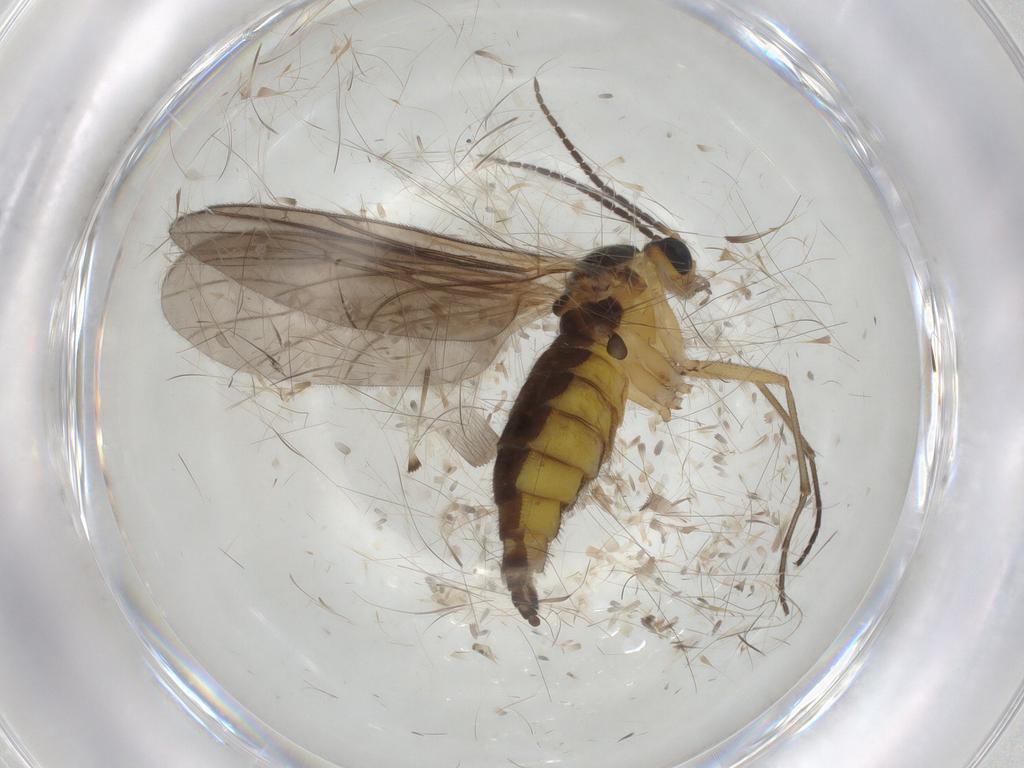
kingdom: Animalia
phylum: Arthropoda
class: Insecta
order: Diptera
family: Sciaridae
